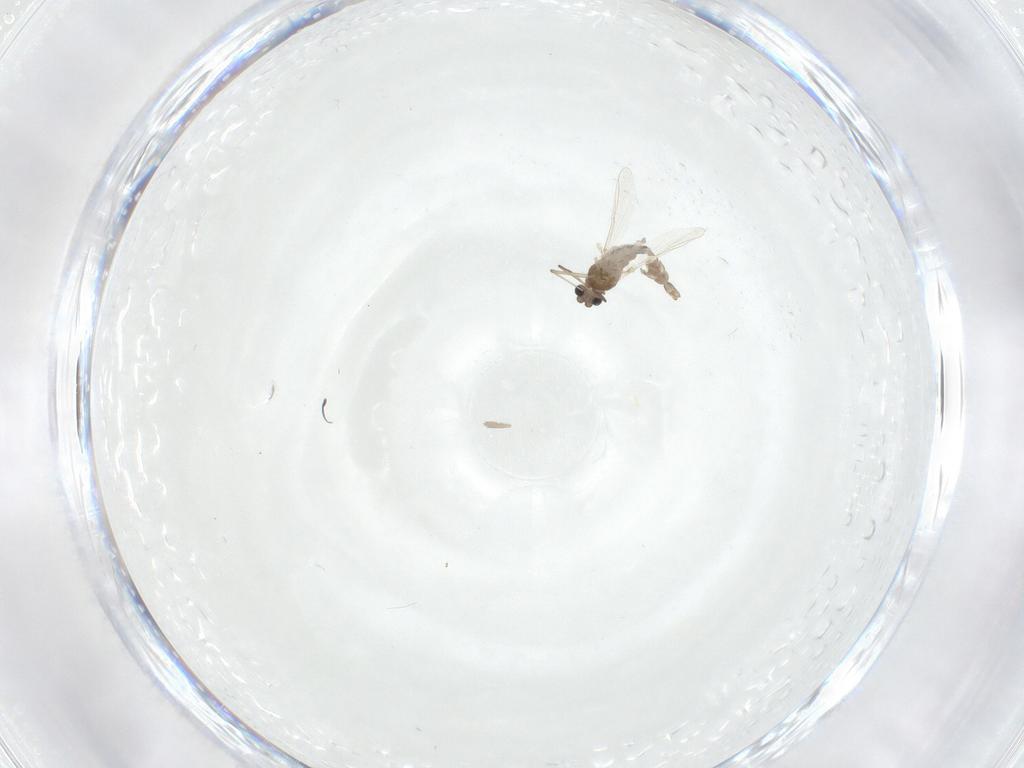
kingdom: Animalia
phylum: Arthropoda
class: Insecta
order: Diptera
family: Chironomidae
